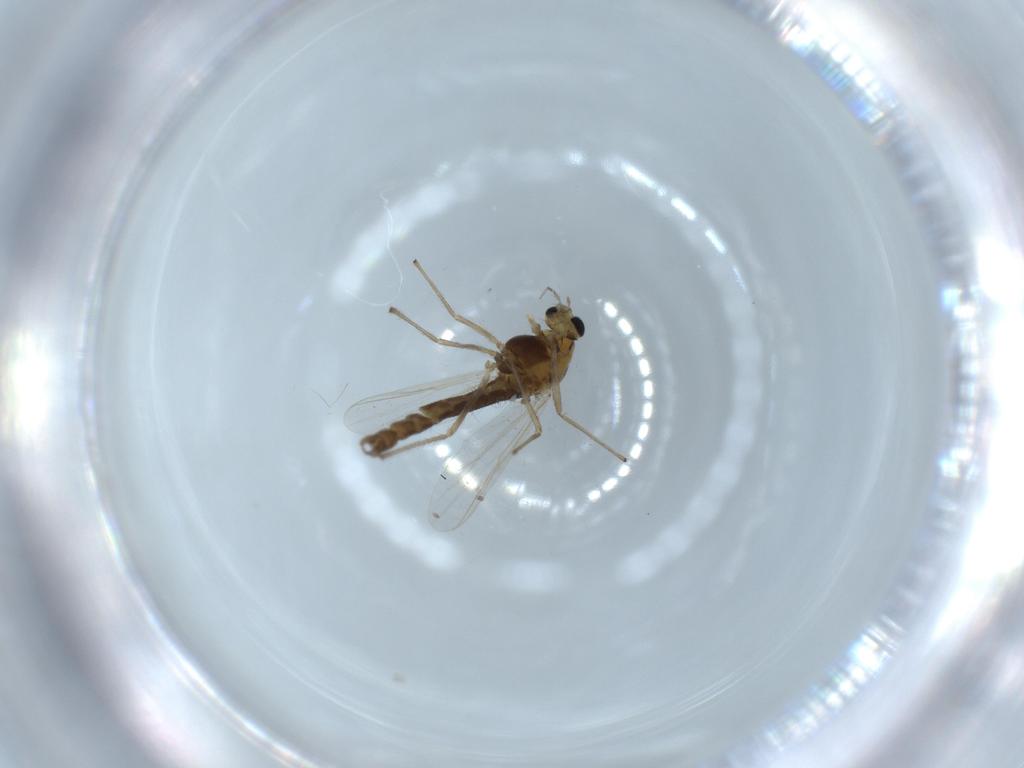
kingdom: Animalia
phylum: Arthropoda
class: Insecta
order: Diptera
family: Chironomidae
